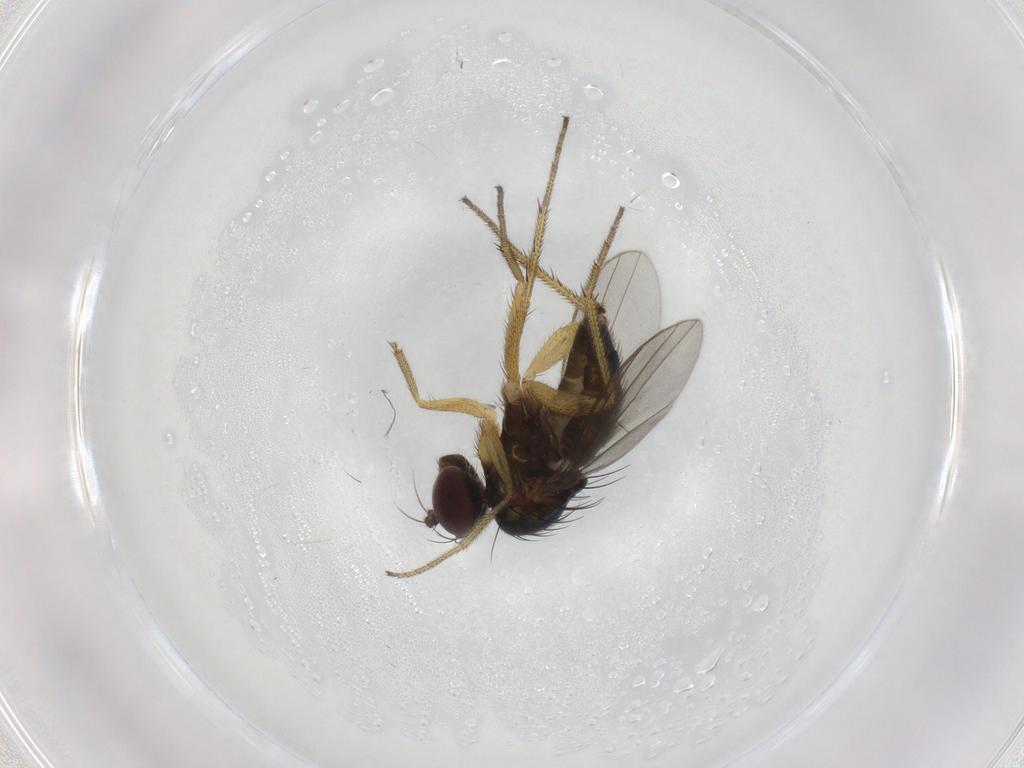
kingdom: Animalia
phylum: Arthropoda
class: Insecta
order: Diptera
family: Dolichopodidae
